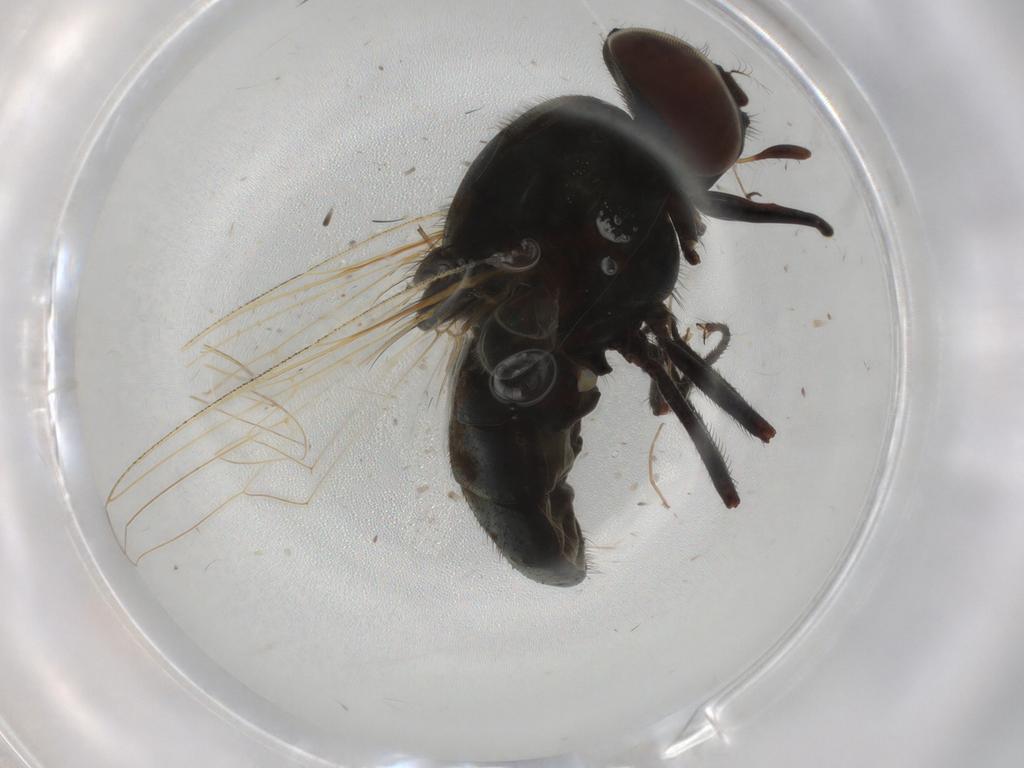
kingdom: Animalia
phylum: Arthropoda
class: Insecta
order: Diptera
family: Muscidae
